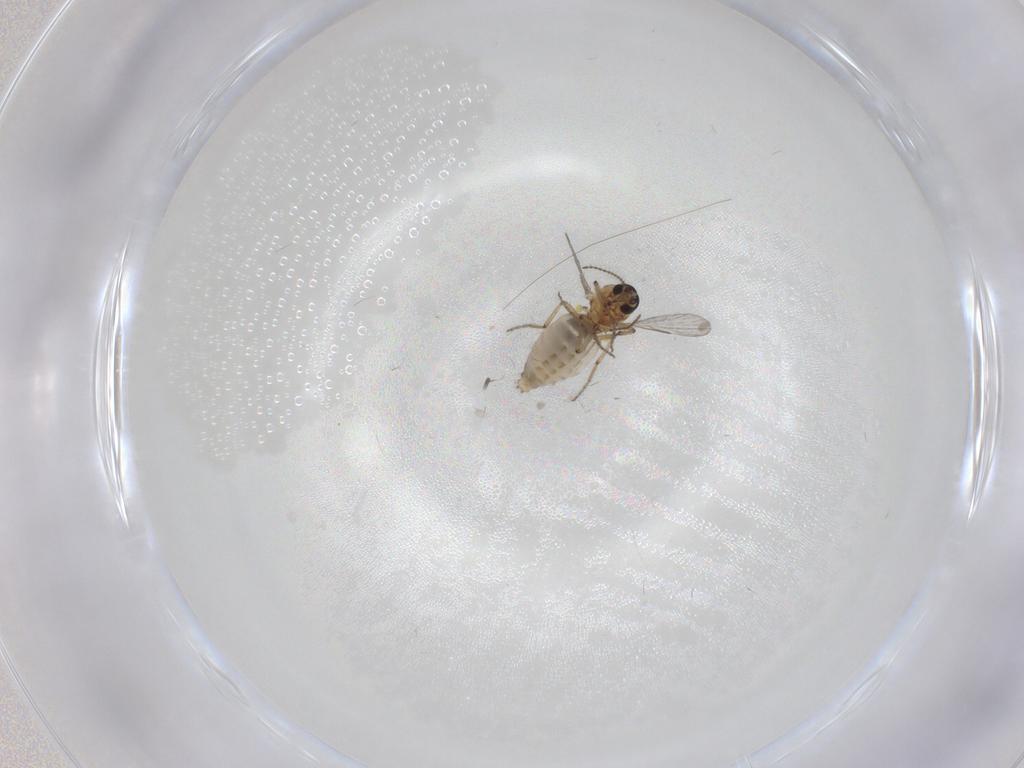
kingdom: Animalia
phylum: Arthropoda
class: Insecta
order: Diptera
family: Ceratopogonidae
